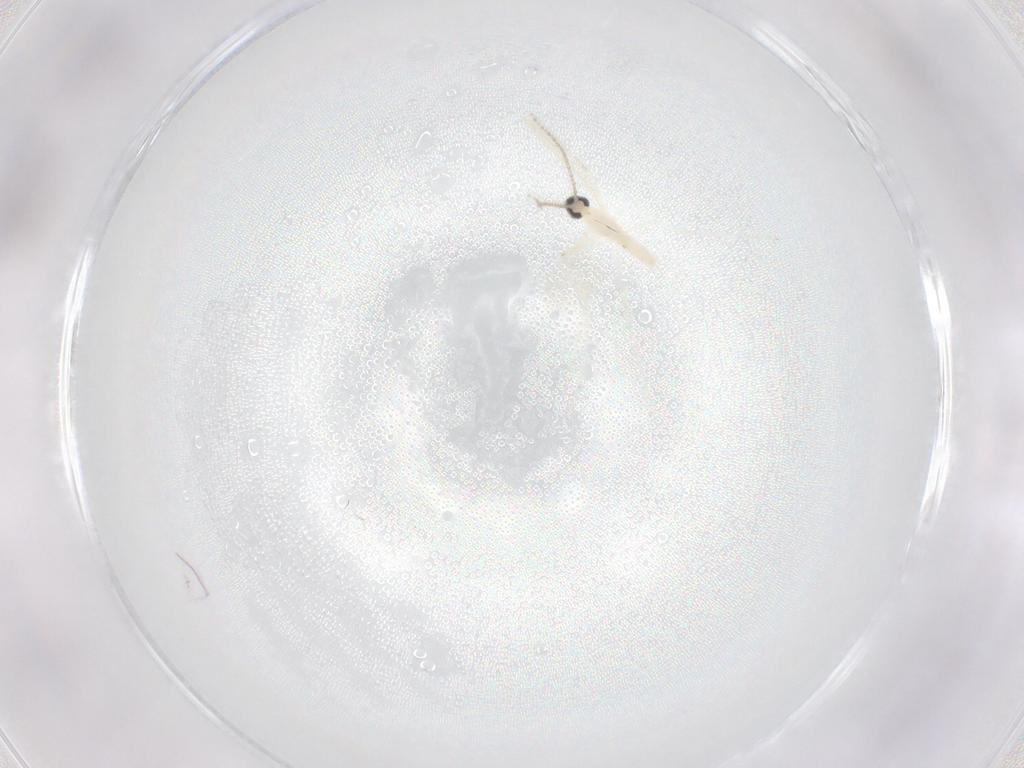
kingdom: Animalia
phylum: Arthropoda
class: Insecta
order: Diptera
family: Cecidomyiidae
